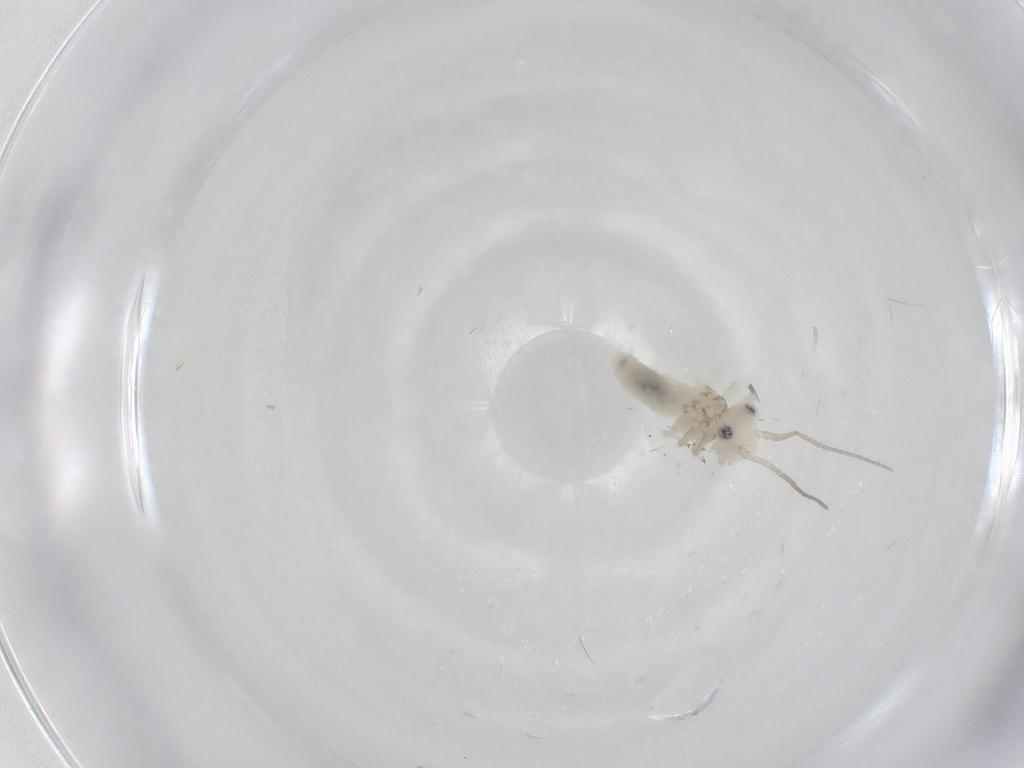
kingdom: Animalia
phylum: Arthropoda
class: Insecta
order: Psocodea
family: Caeciliusidae
